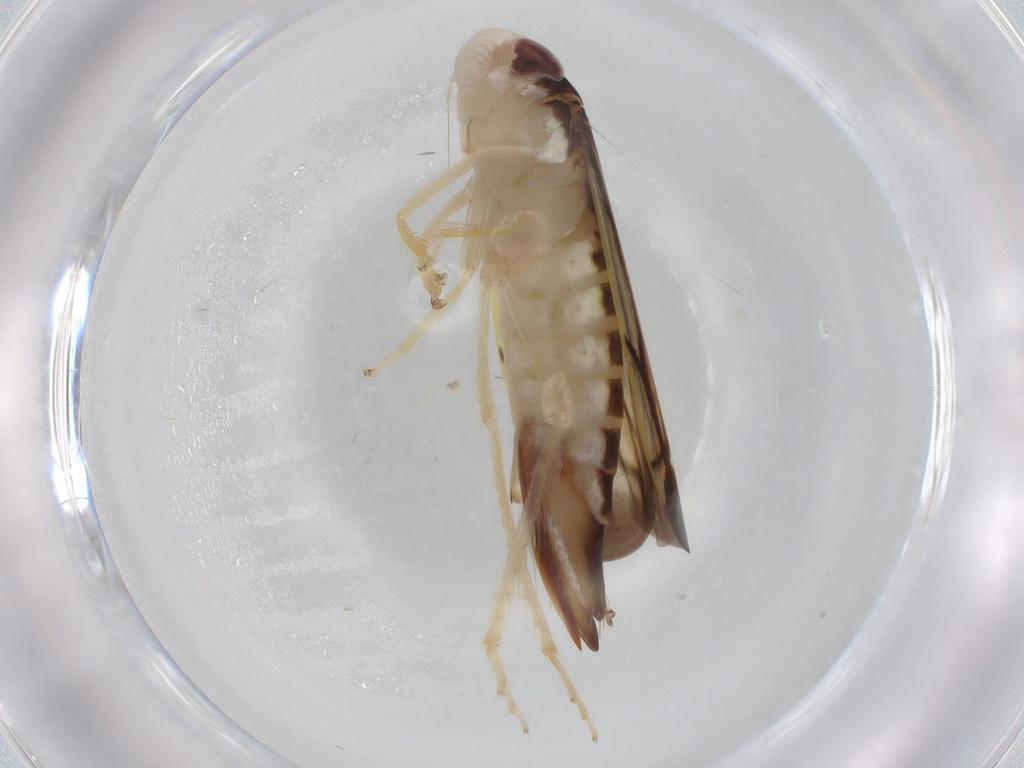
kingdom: Animalia
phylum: Arthropoda
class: Insecta
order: Hemiptera
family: Cicadellidae
